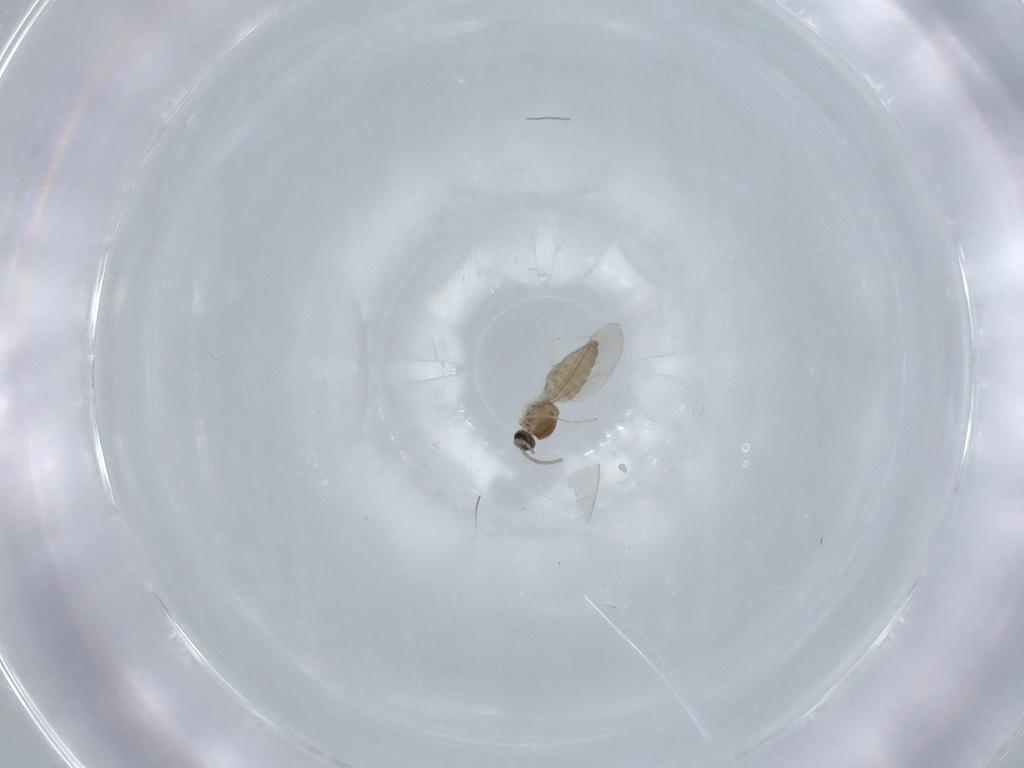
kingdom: Animalia
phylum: Arthropoda
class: Insecta
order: Diptera
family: Cecidomyiidae
